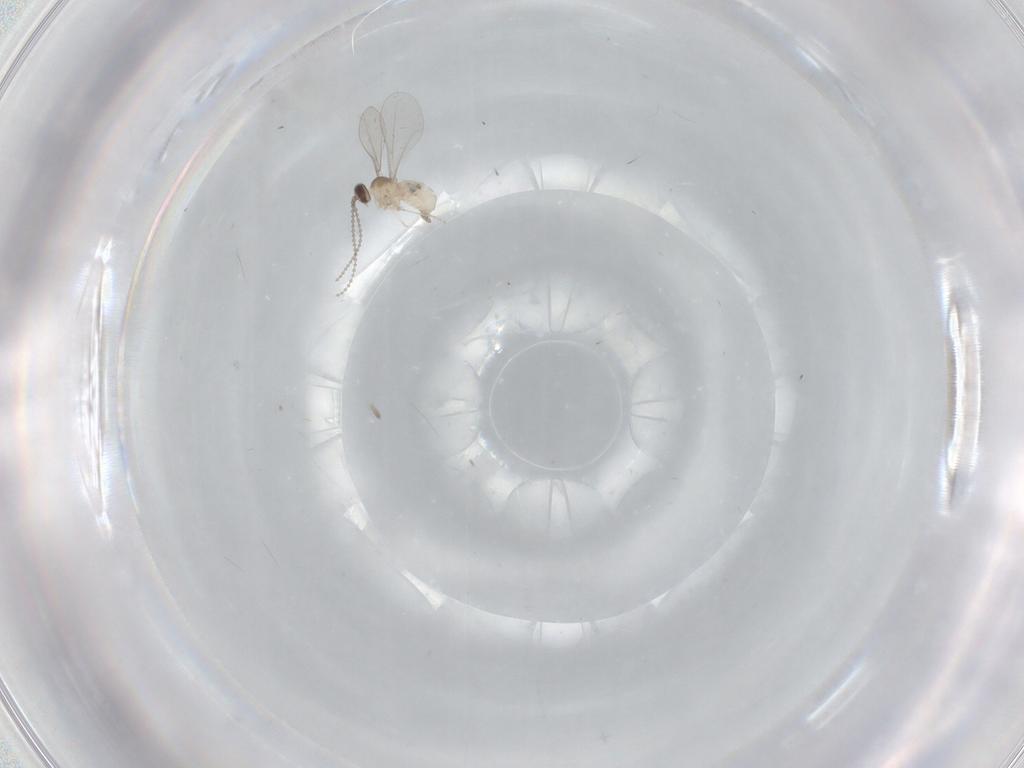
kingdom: Animalia
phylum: Arthropoda
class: Insecta
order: Diptera
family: Cecidomyiidae
